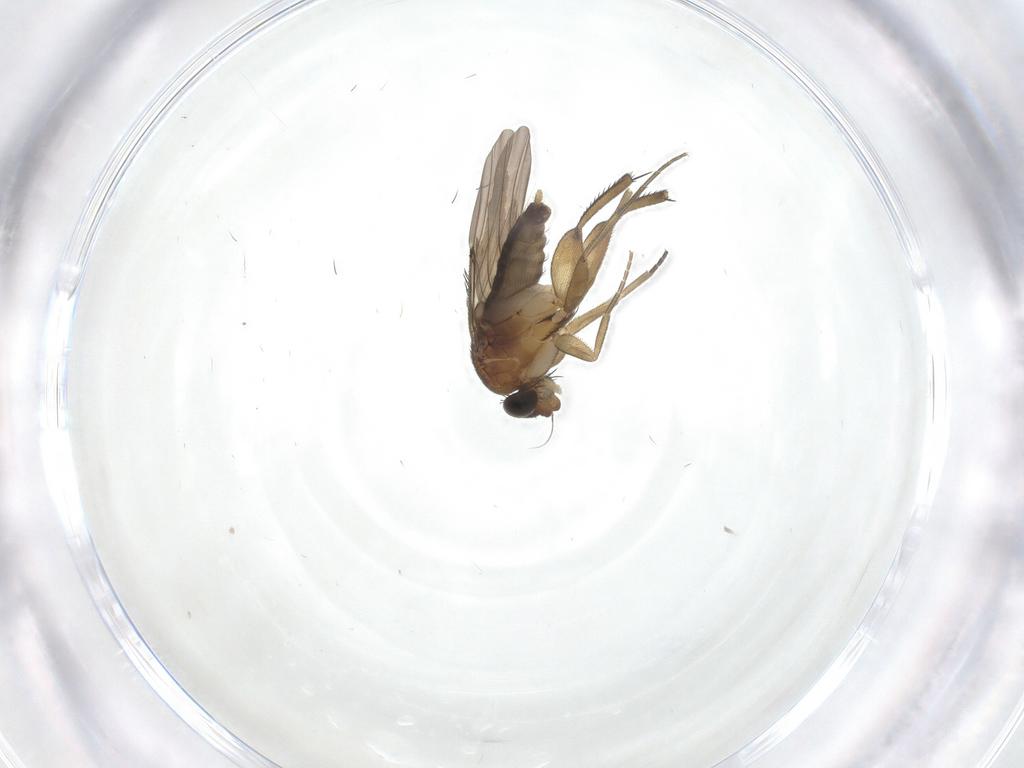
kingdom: Animalia
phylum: Arthropoda
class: Insecta
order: Diptera
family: Phoridae
